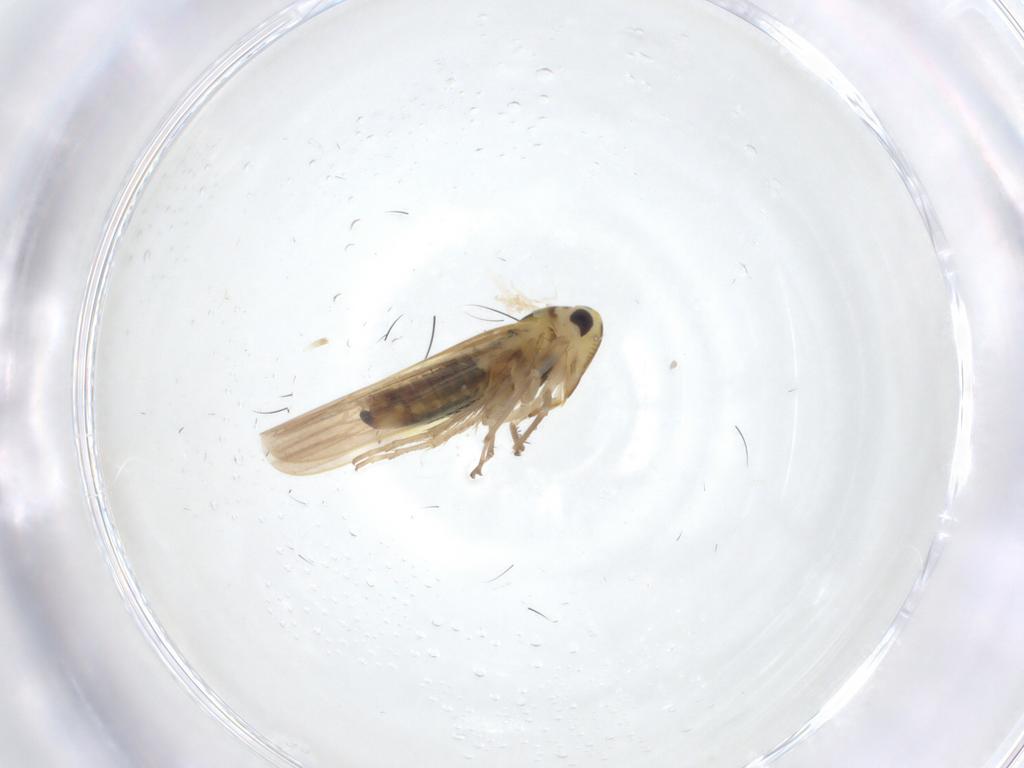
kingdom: Animalia
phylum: Arthropoda
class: Insecta
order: Hemiptera
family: Cicadellidae
